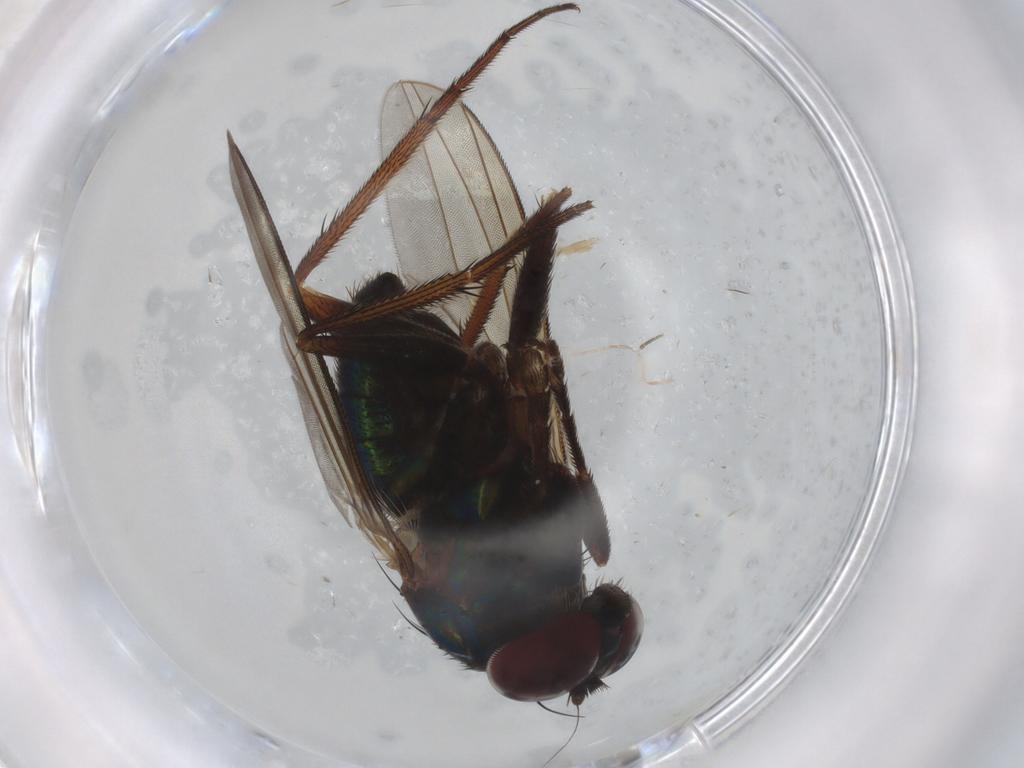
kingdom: Animalia
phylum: Arthropoda
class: Insecta
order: Diptera
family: Dolichopodidae
